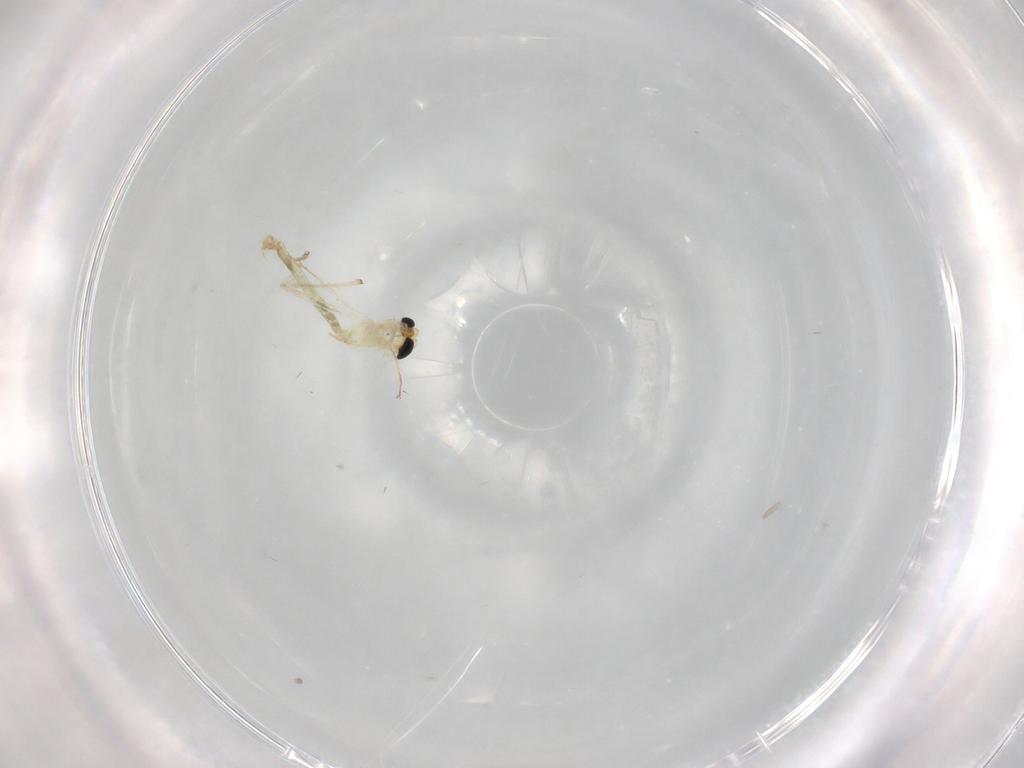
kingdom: Animalia
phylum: Arthropoda
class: Insecta
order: Diptera
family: Chironomidae
